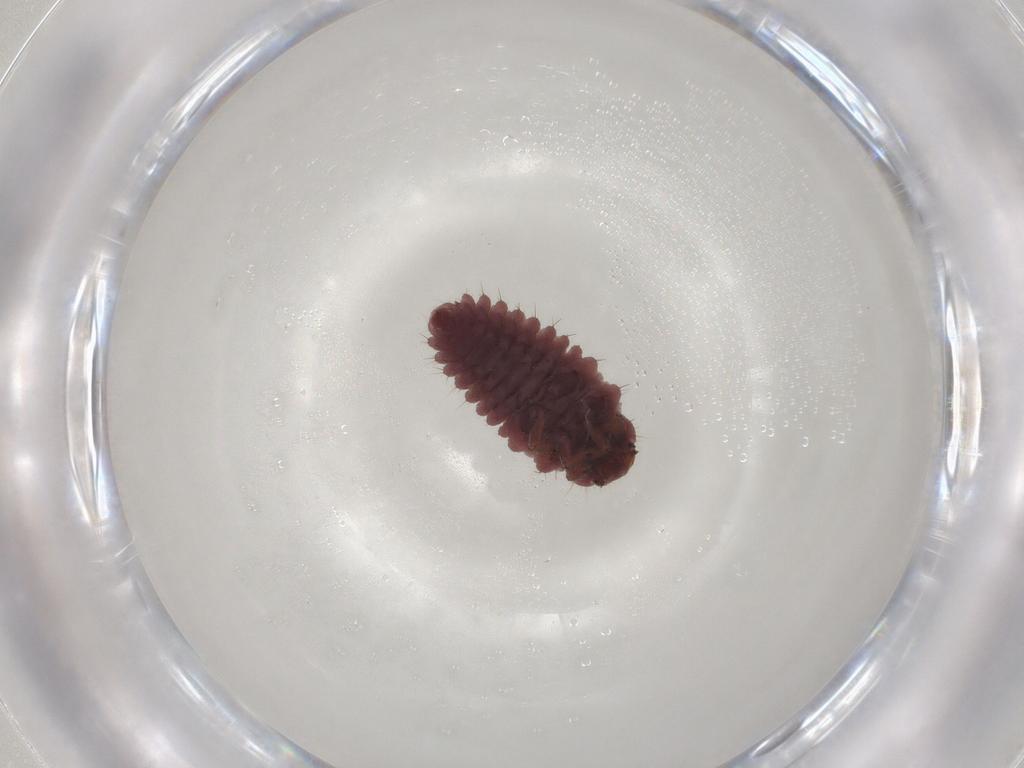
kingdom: Animalia
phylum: Arthropoda
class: Insecta
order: Coleoptera
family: Coccinellidae
